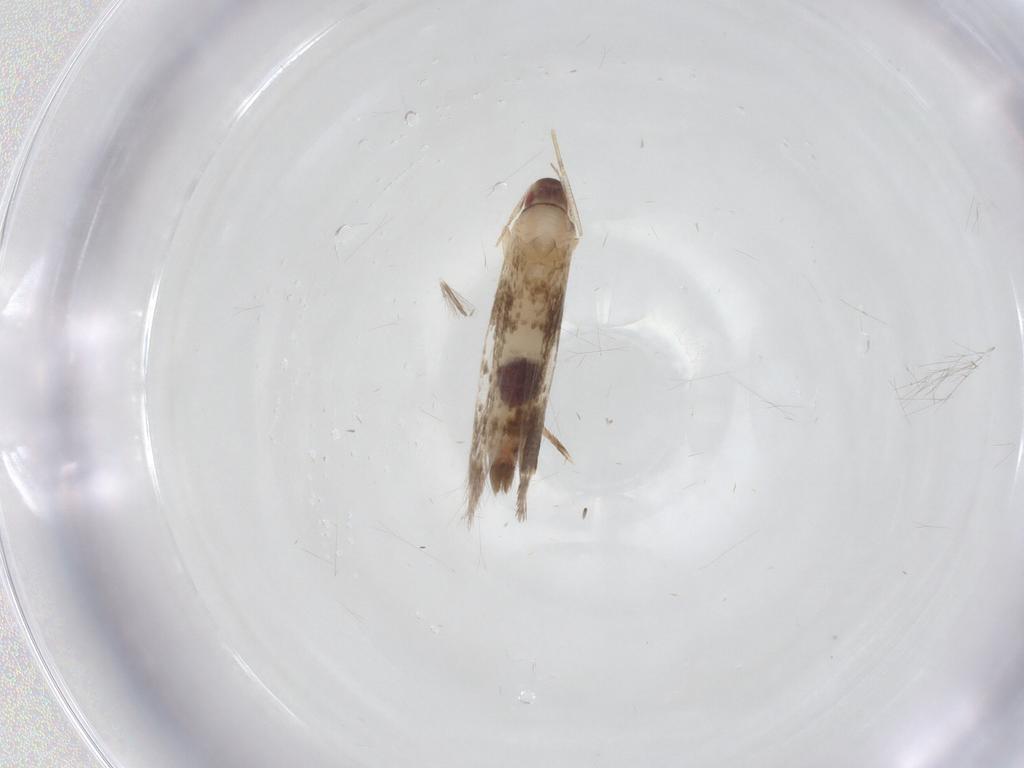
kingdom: Animalia
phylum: Arthropoda
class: Insecta
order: Lepidoptera
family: Cosmopterigidae
